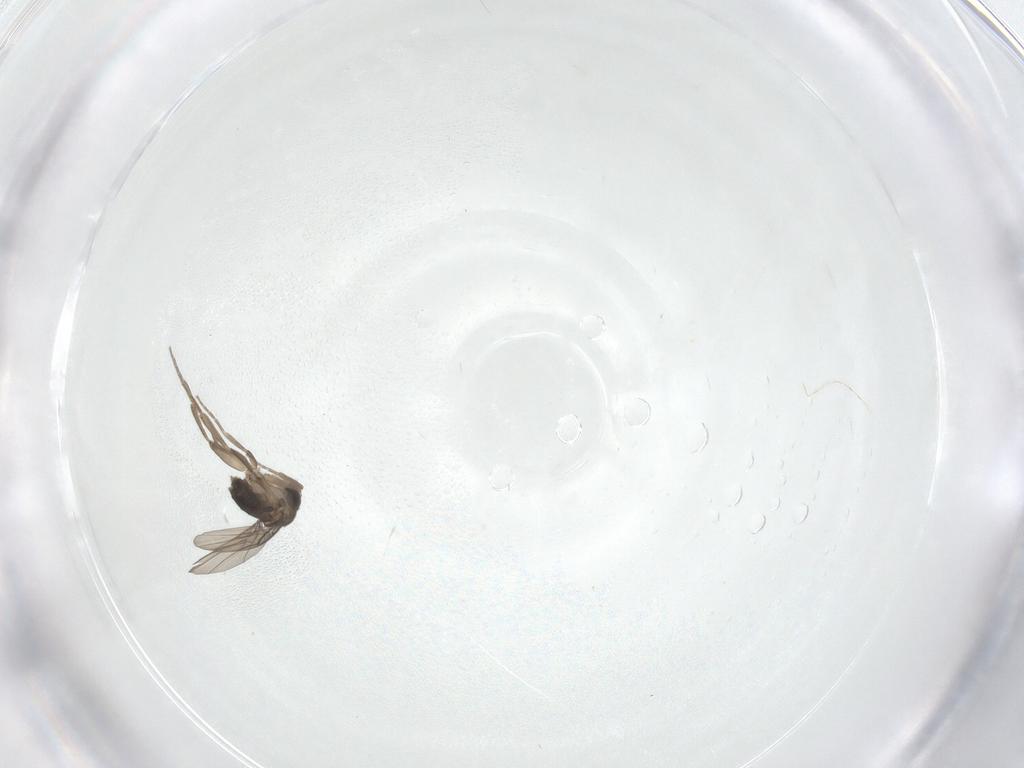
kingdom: Animalia
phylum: Arthropoda
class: Insecta
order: Diptera
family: Phoridae
